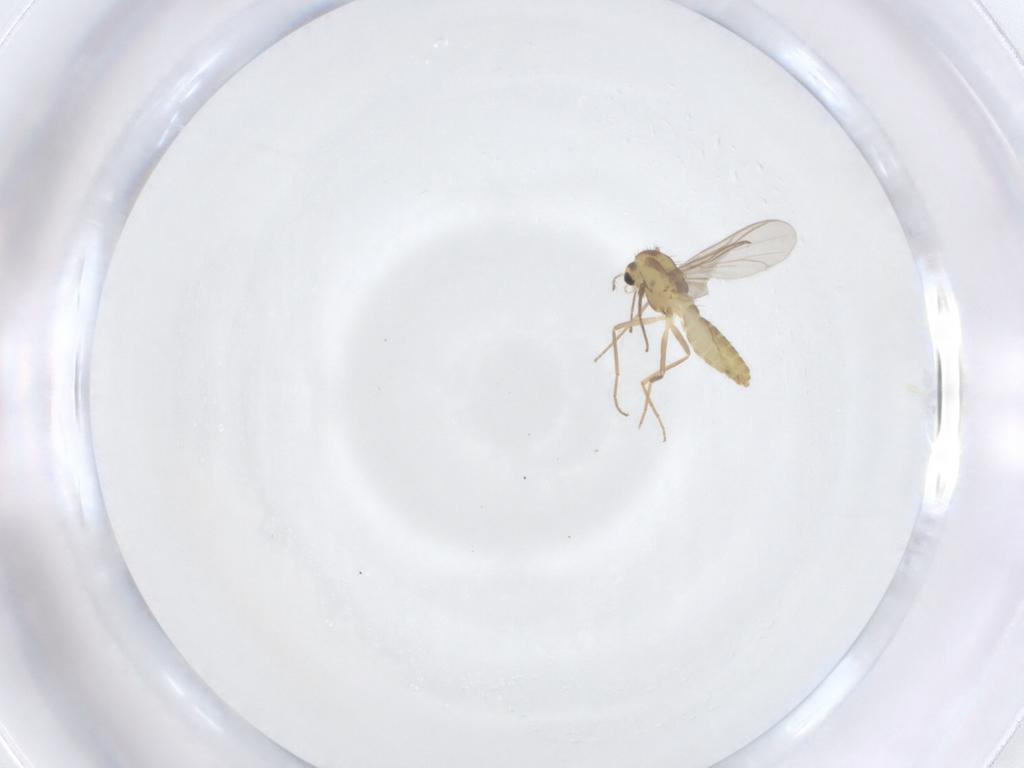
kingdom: Animalia
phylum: Arthropoda
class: Insecta
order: Diptera
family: Chironomidae
